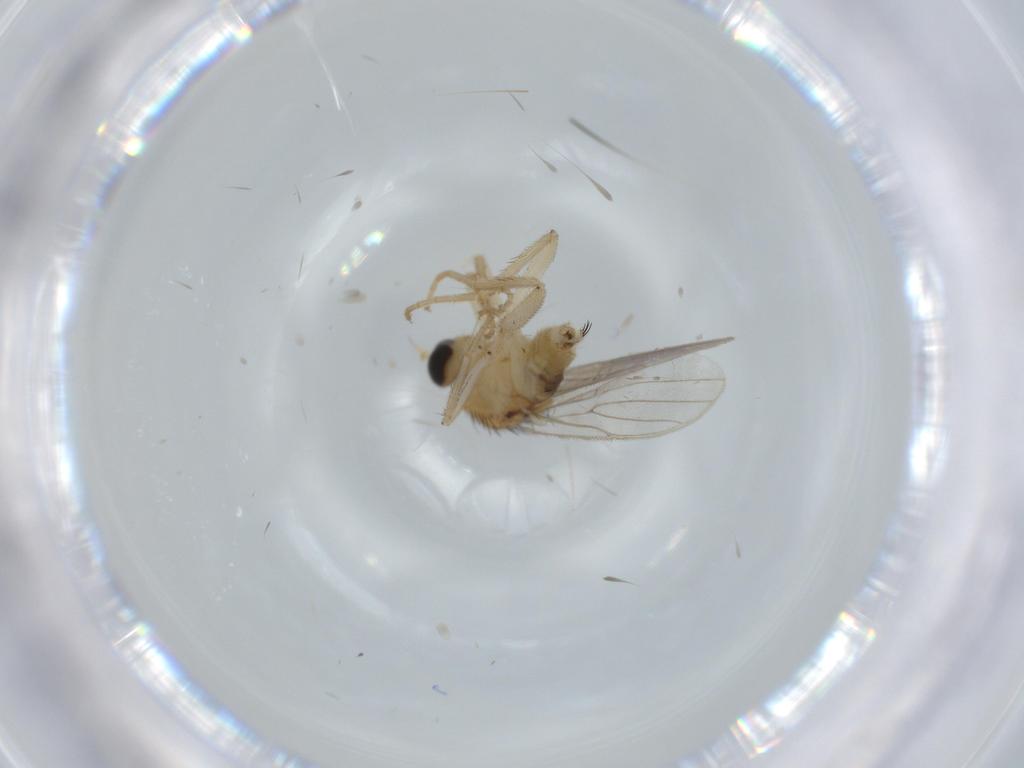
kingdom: Animalia
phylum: Arthropoda
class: Insecta
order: Diptera
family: Hybotidae
